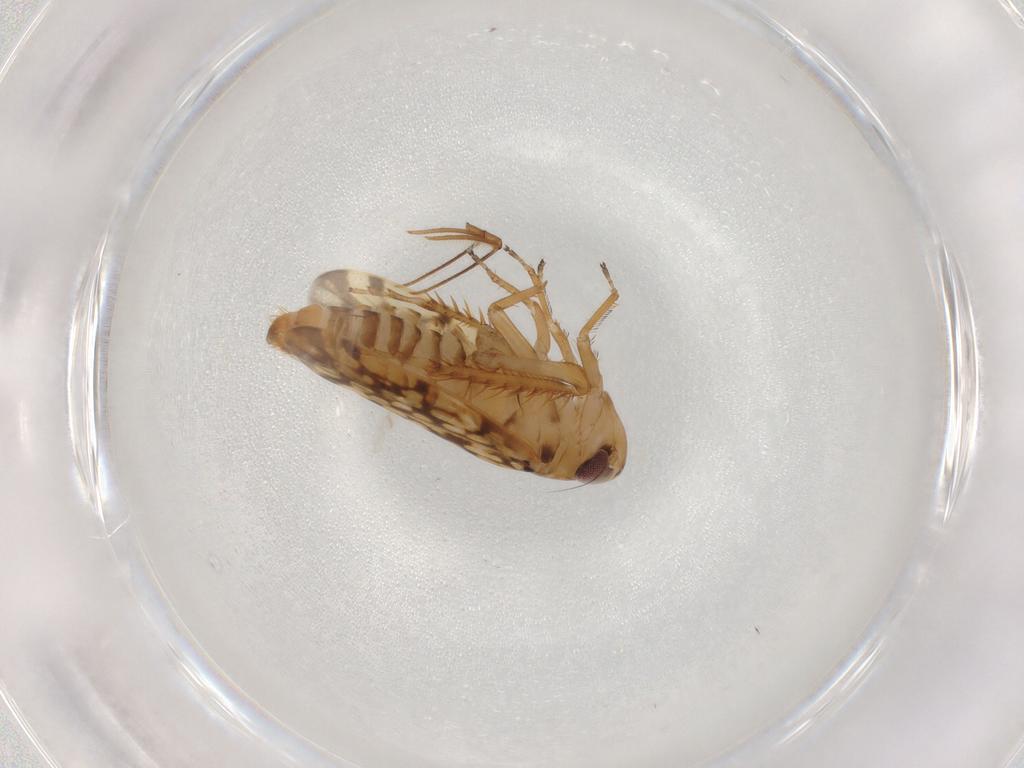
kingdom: Animalia
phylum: Arthropoda
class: Insecta
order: Hemiptera
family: Cicadellidae
